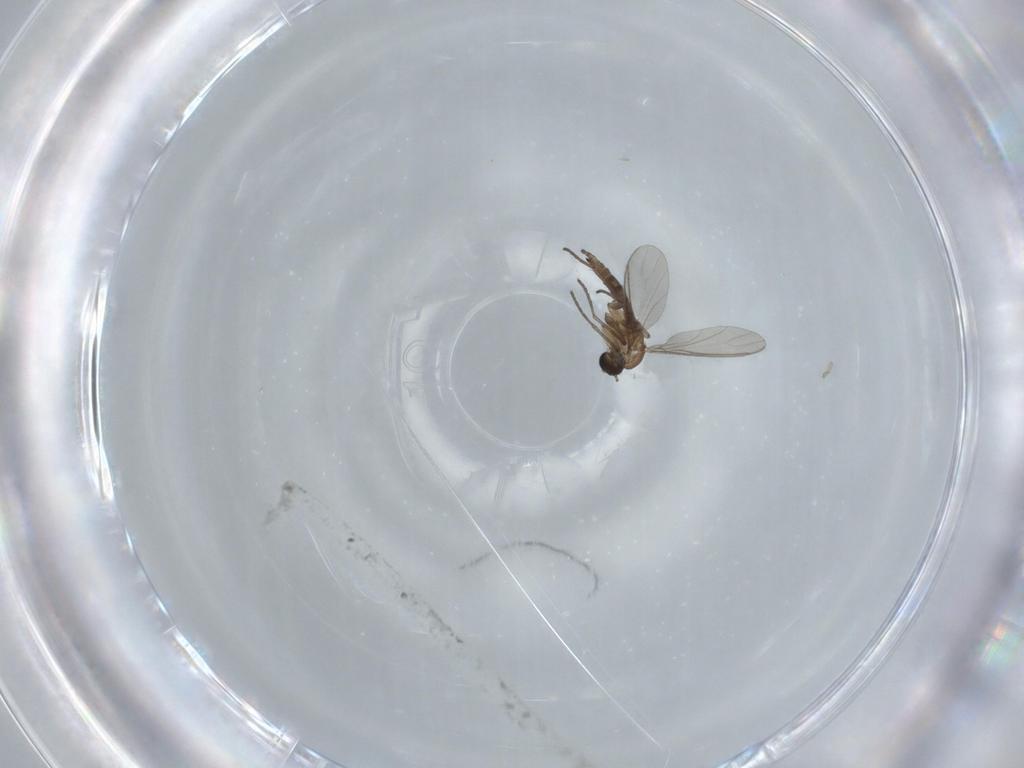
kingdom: Animalia
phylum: Arthropoda
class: Insecta
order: Diptera
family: Sciaridae
